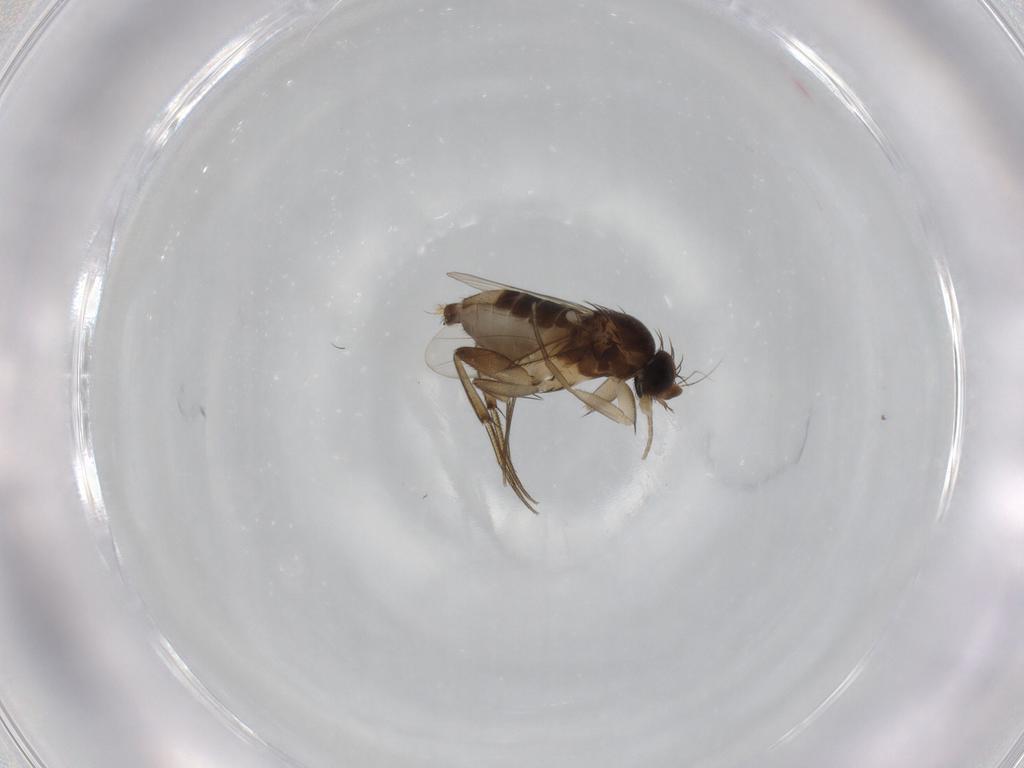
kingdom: Animalia
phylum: Arthropoda
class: Insecta
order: Diptera
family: Phoridae
